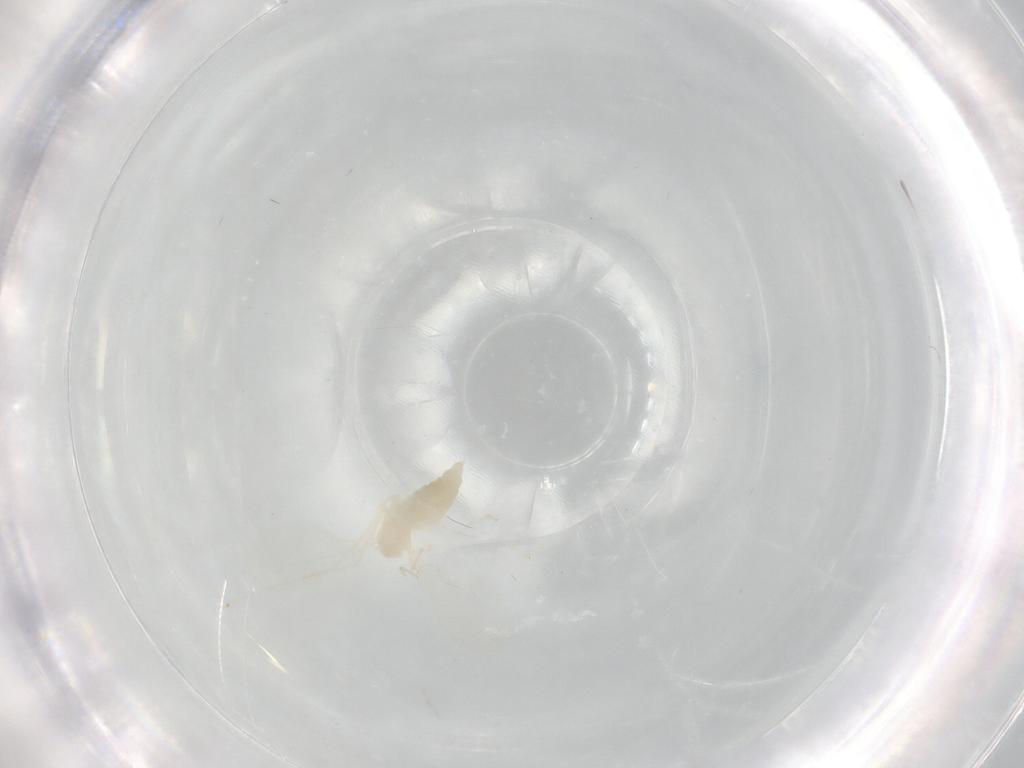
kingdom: Animalia
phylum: Arthropoda
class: Insecta
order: Diptera
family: Cecidomyiidae
